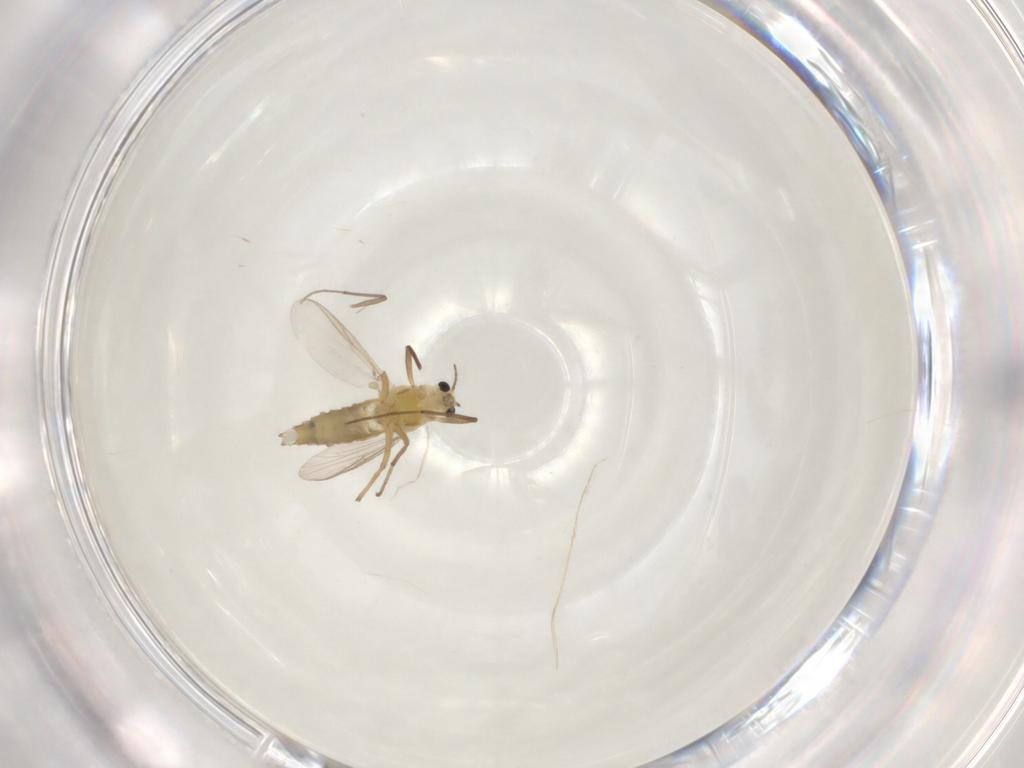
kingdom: Animalia
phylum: Arthropoda
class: Insecta
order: Diptera
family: Chironomidae
